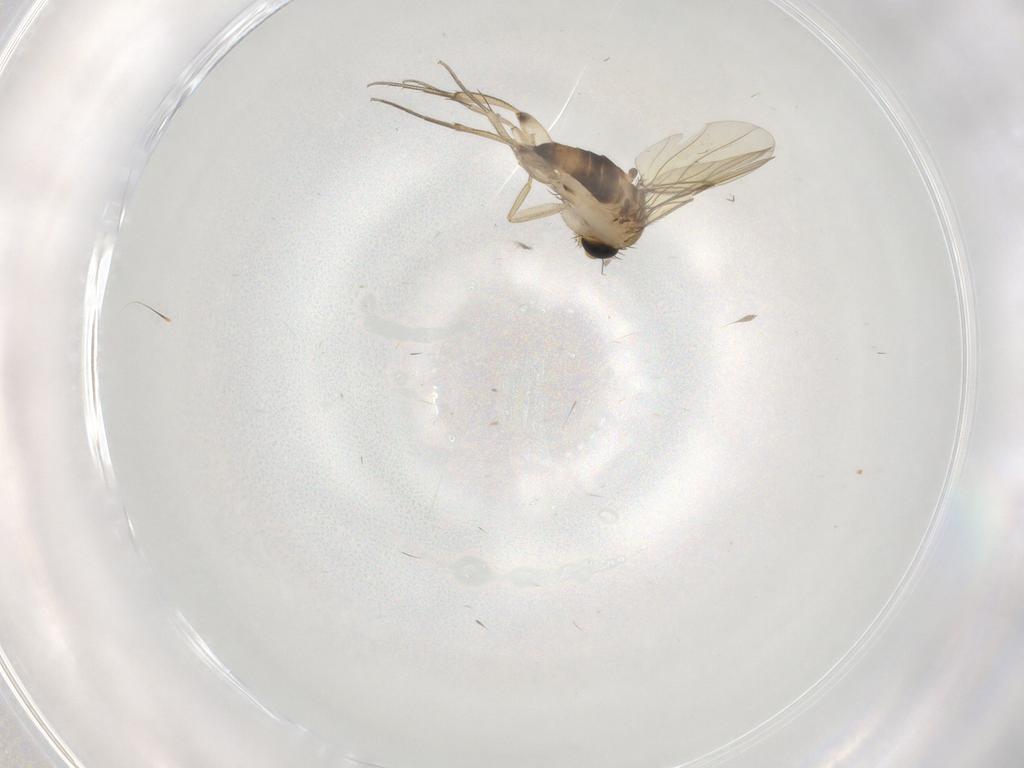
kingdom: Animalia
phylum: Arthropoda
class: Insecta
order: Diptera
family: Phoridae
